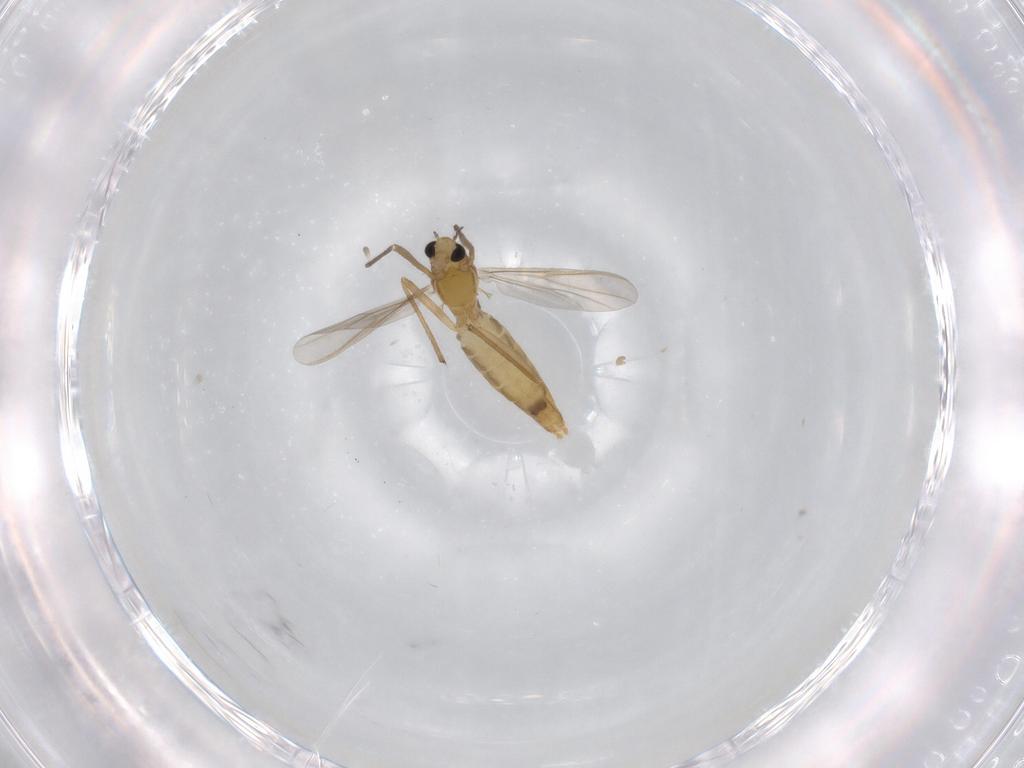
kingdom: Animalia
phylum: Arthropoda
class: Insecta
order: Diptera
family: Chironomidae
